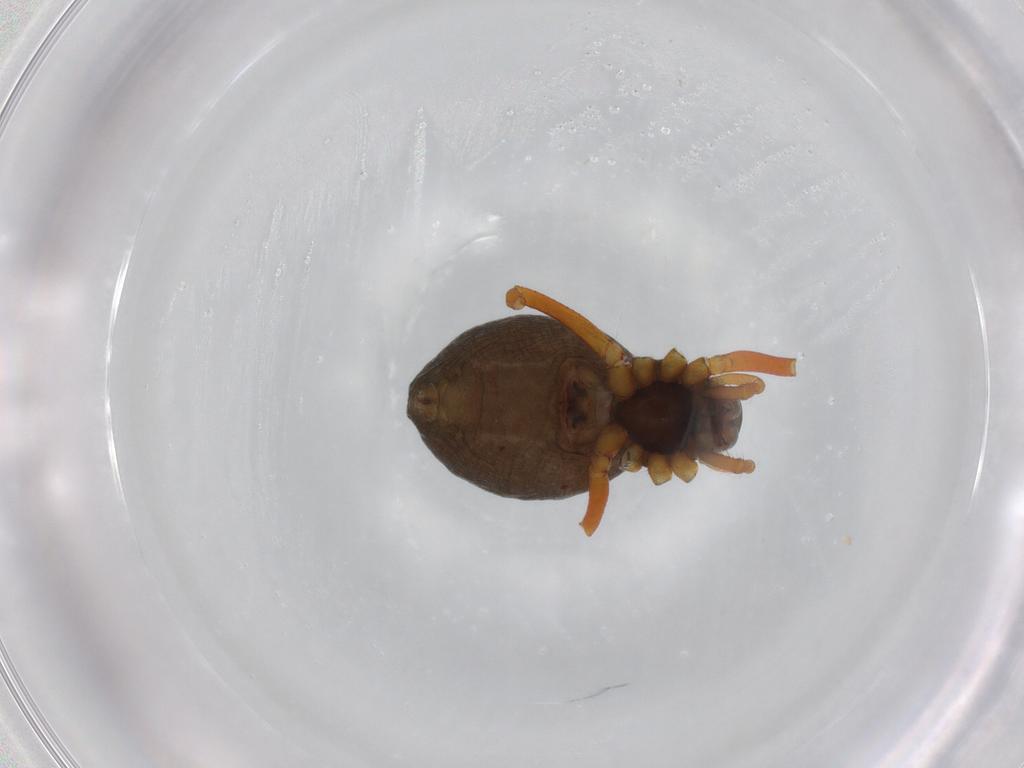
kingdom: Animalia
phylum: Arthropoda
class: Arachnida
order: Araneae
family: Linyphiidae
